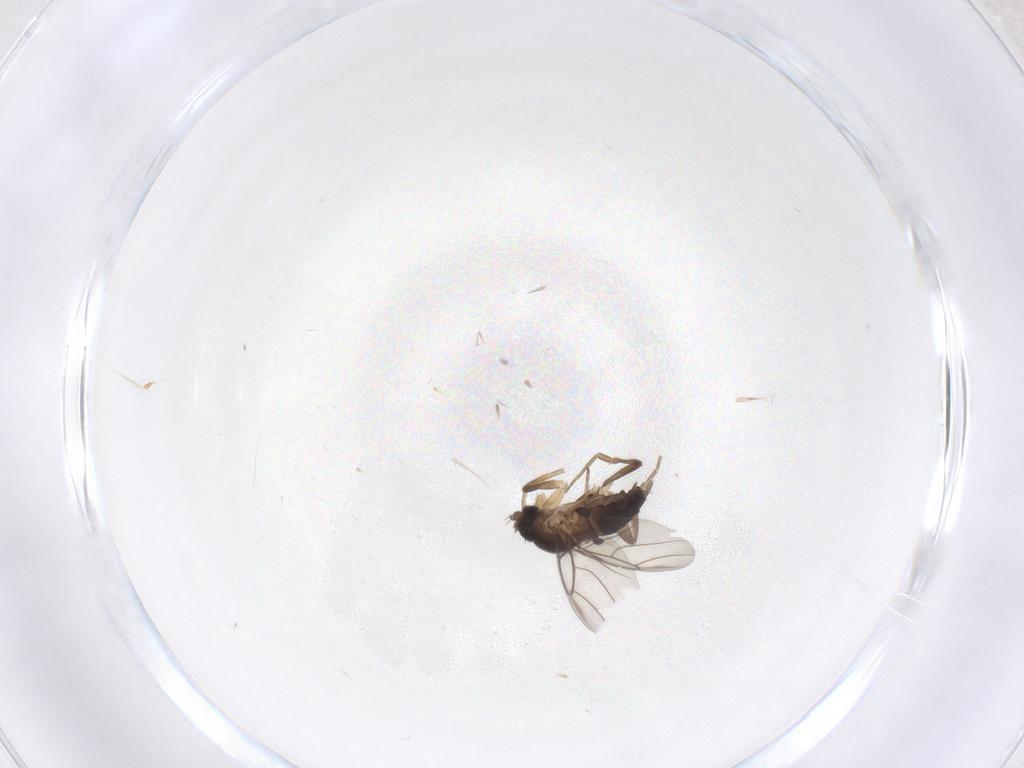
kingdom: Animalia
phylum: Arthropoda
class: Insecta
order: Diptera
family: Phoridae
